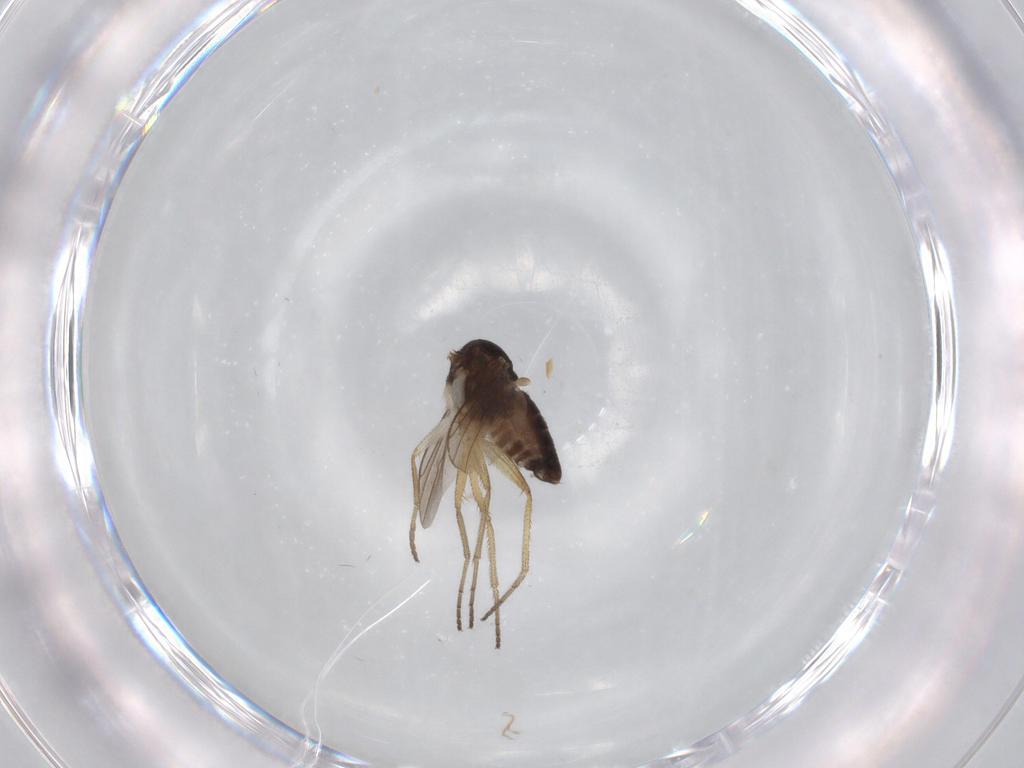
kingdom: Animalia
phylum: Arthropoda
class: Insecta
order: Diptera
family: Dolichopodidae
